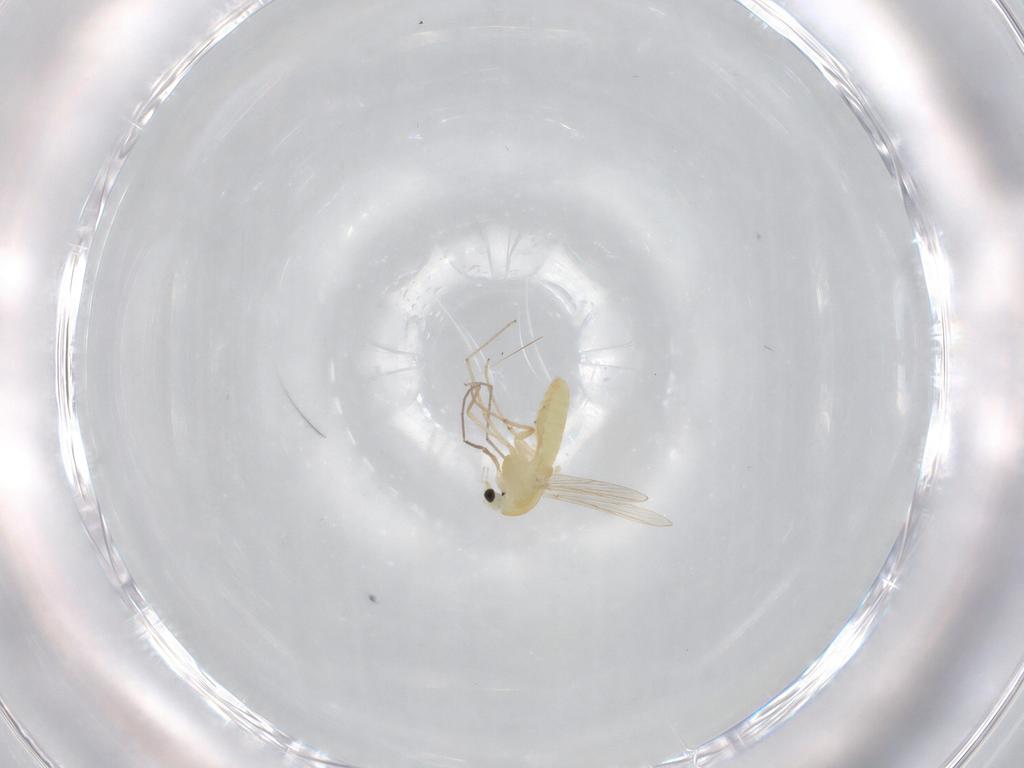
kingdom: Animalia
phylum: Arthropoda
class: Insecta
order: Diptera
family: Chironomidae
